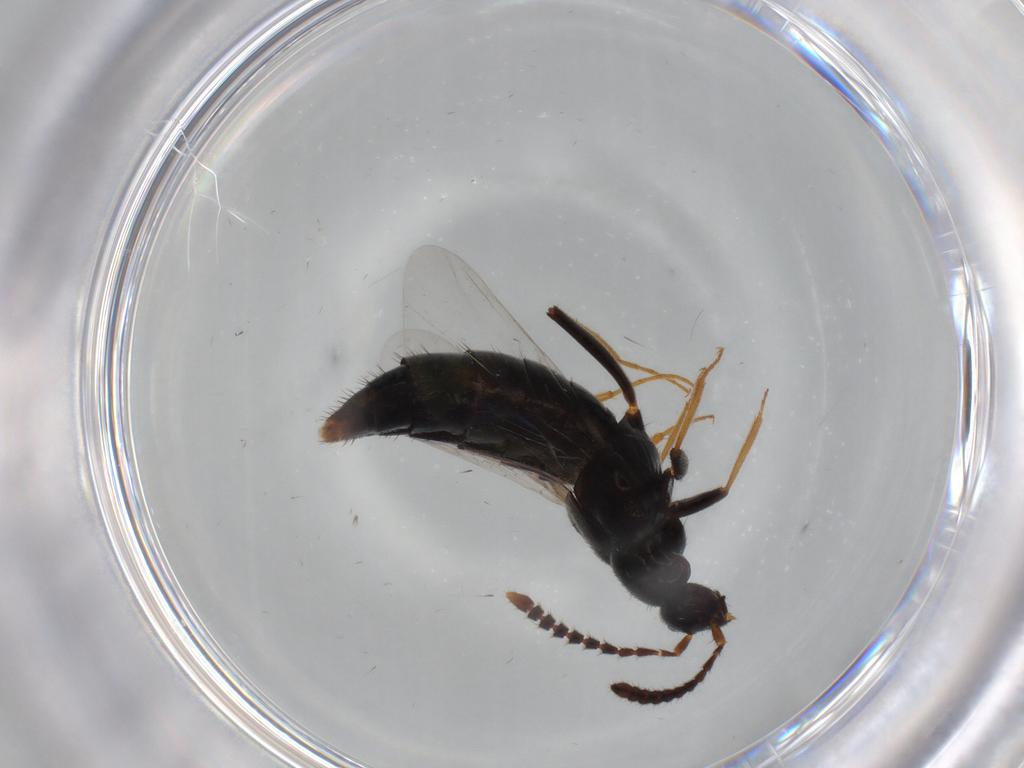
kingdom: Animalia
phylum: Arthropoda
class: Insecta
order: Coleoptera
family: Staphylinidae
